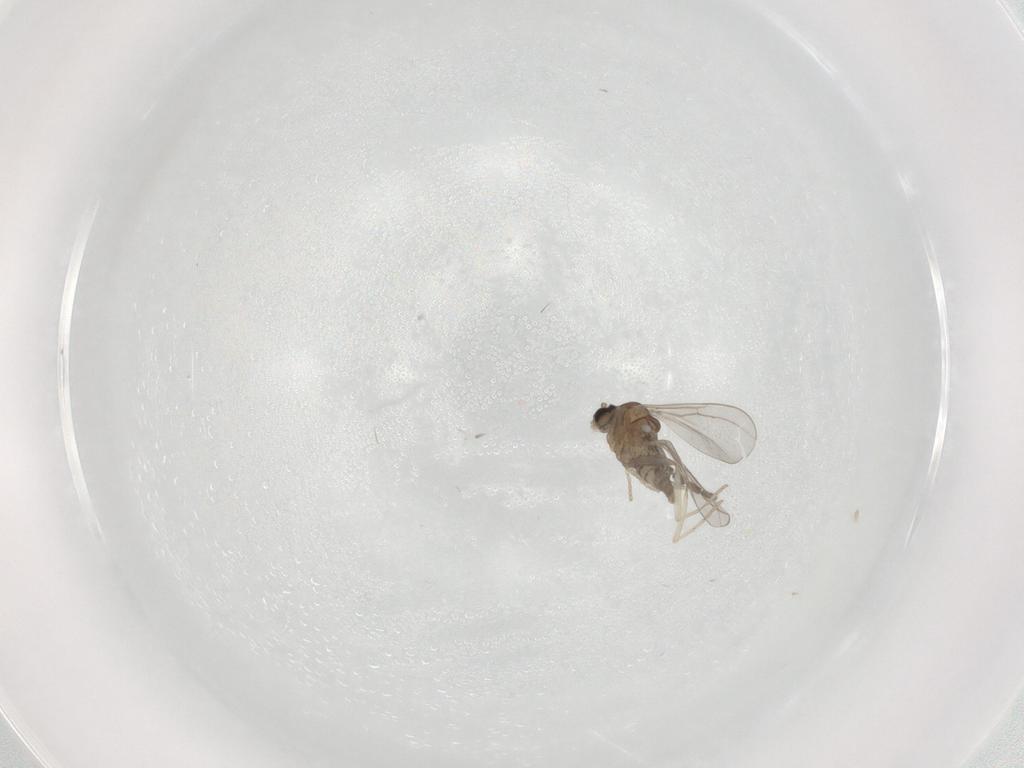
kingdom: Animalia
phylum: Arthropoda
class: Insecta
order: Diptera
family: Sciaridae
